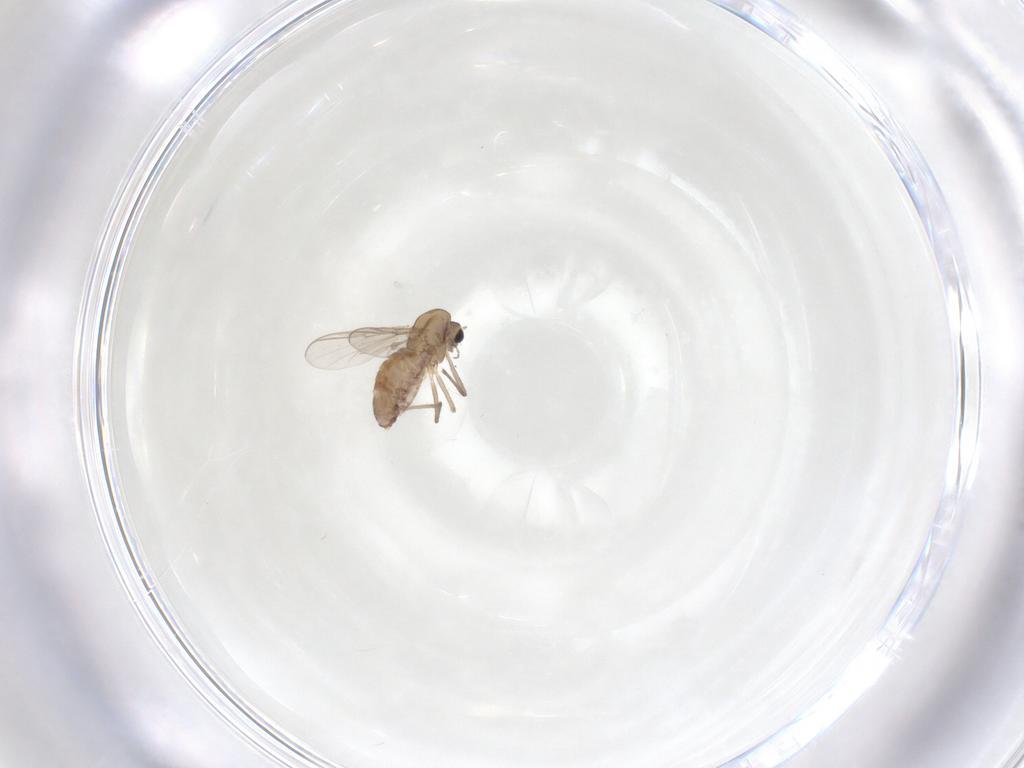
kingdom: Animalia
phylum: Arthropoda
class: Insecta
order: Diptera
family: Chironomidae
